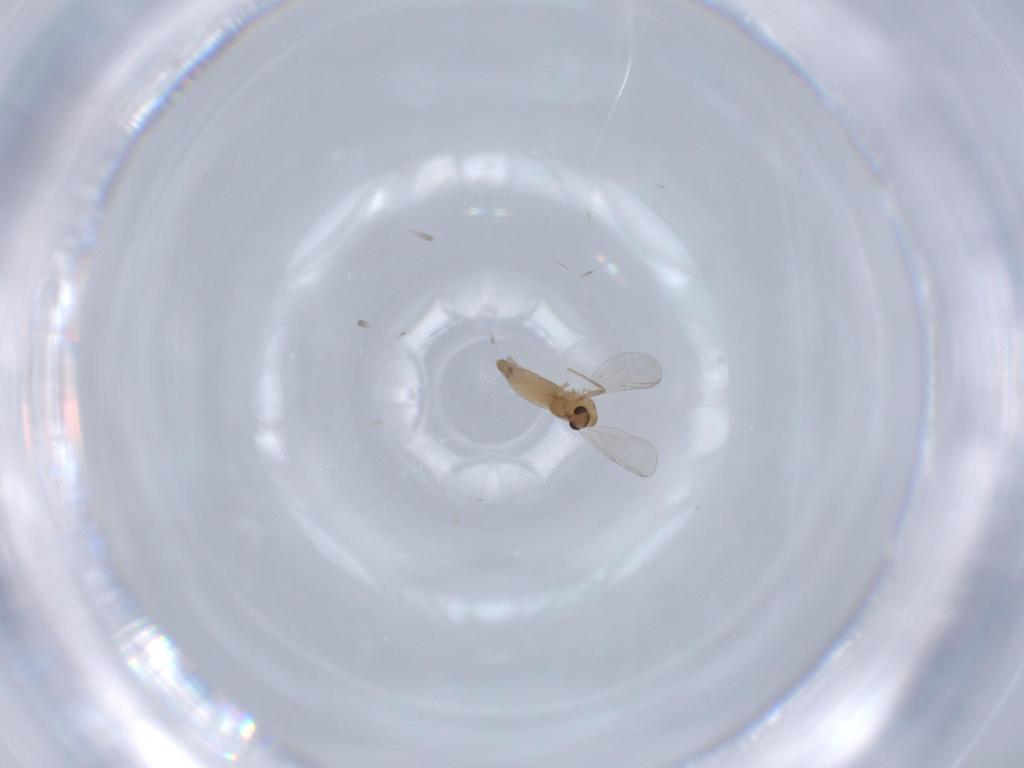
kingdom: Animalia
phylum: Arthropoda
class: Insecta
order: Diptera
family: Chironomidae
